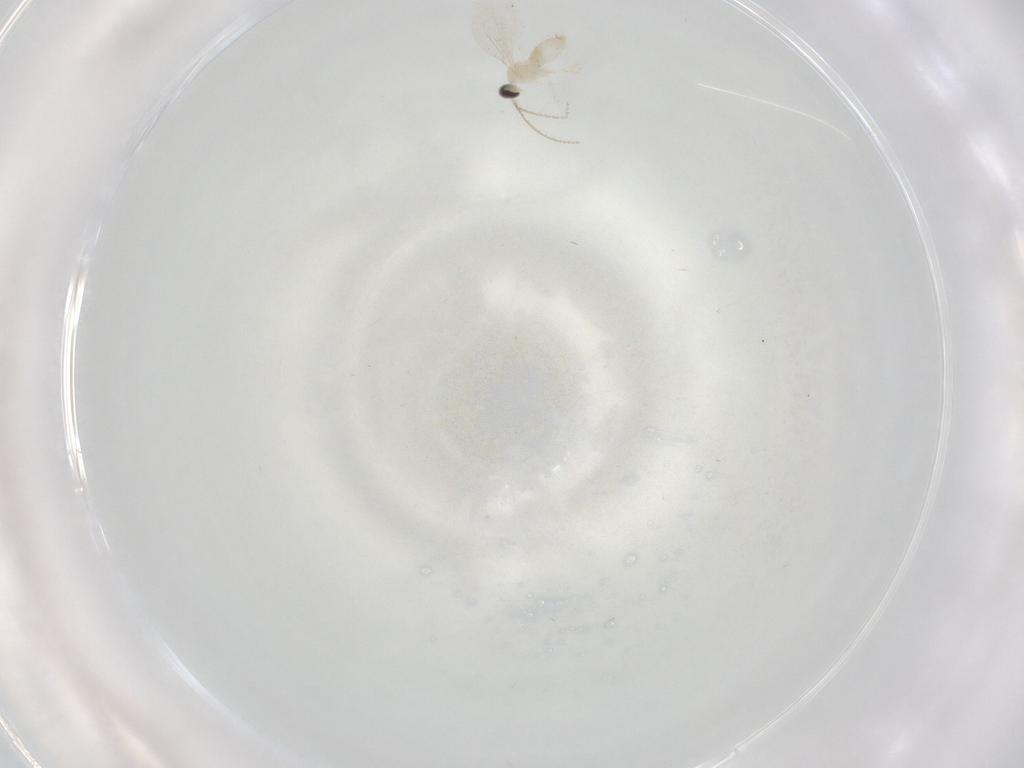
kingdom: Animalia
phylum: Arthropoda
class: Insecta
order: Diptera
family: Cecidomyiidae
